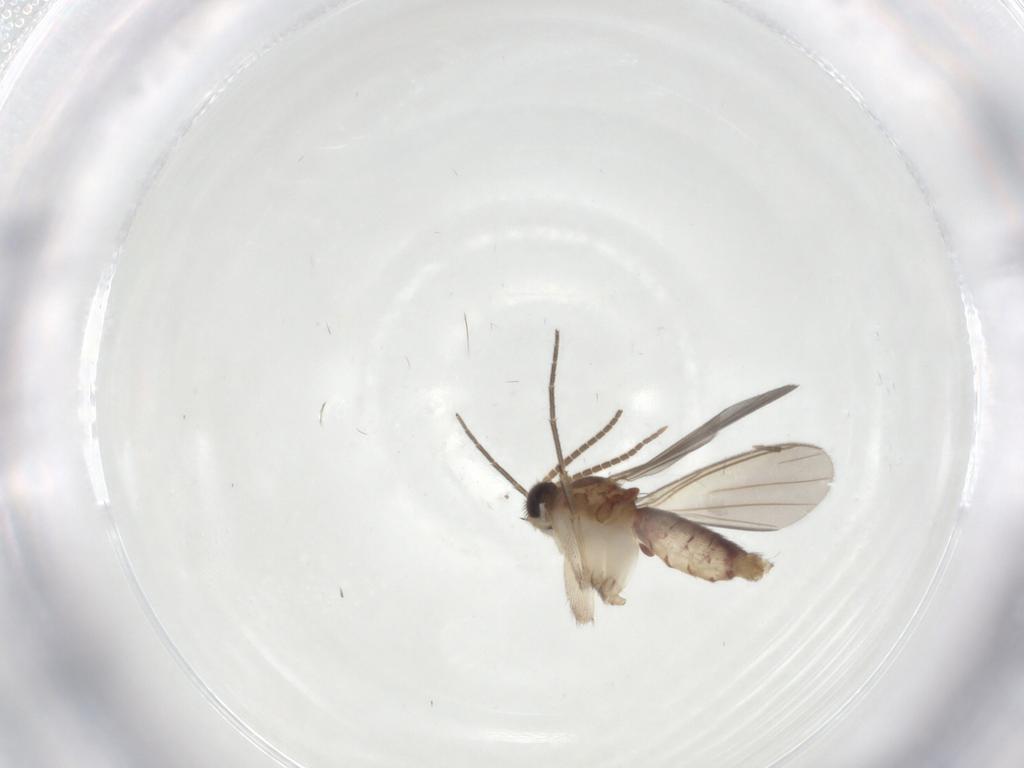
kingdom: Animalia
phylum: Arthropoda
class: Insecta
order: Diptera
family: Mycetophilidae
